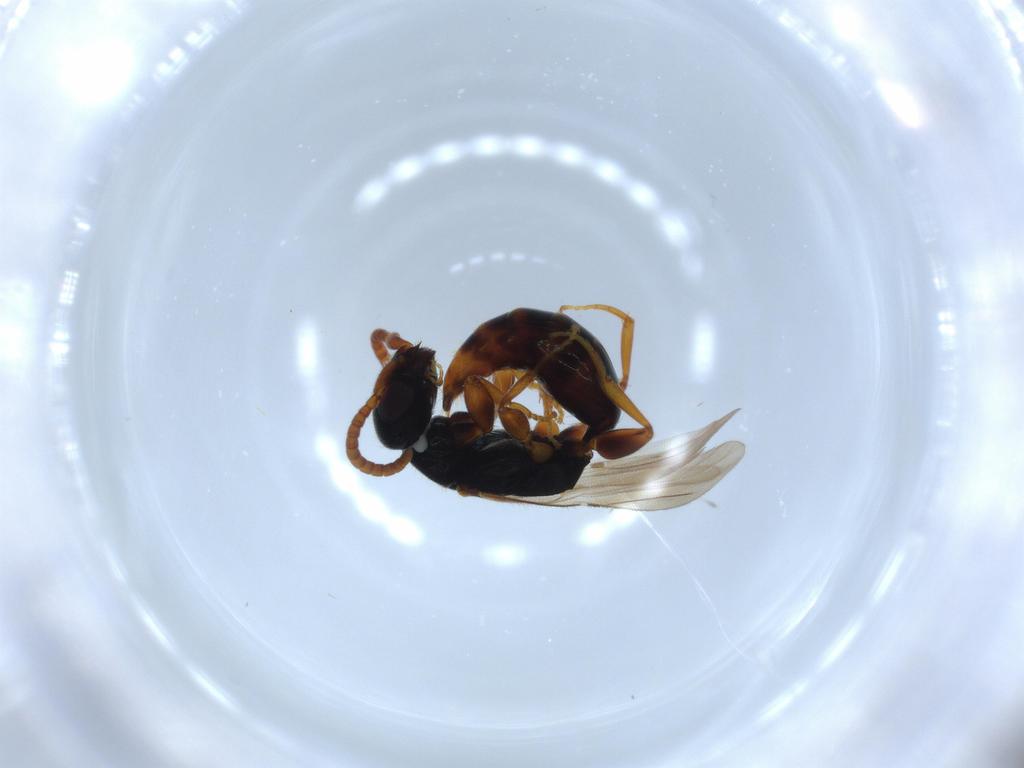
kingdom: Animalia
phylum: Arthropoda
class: Insecta
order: Hymenoptera
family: Bethylidae
